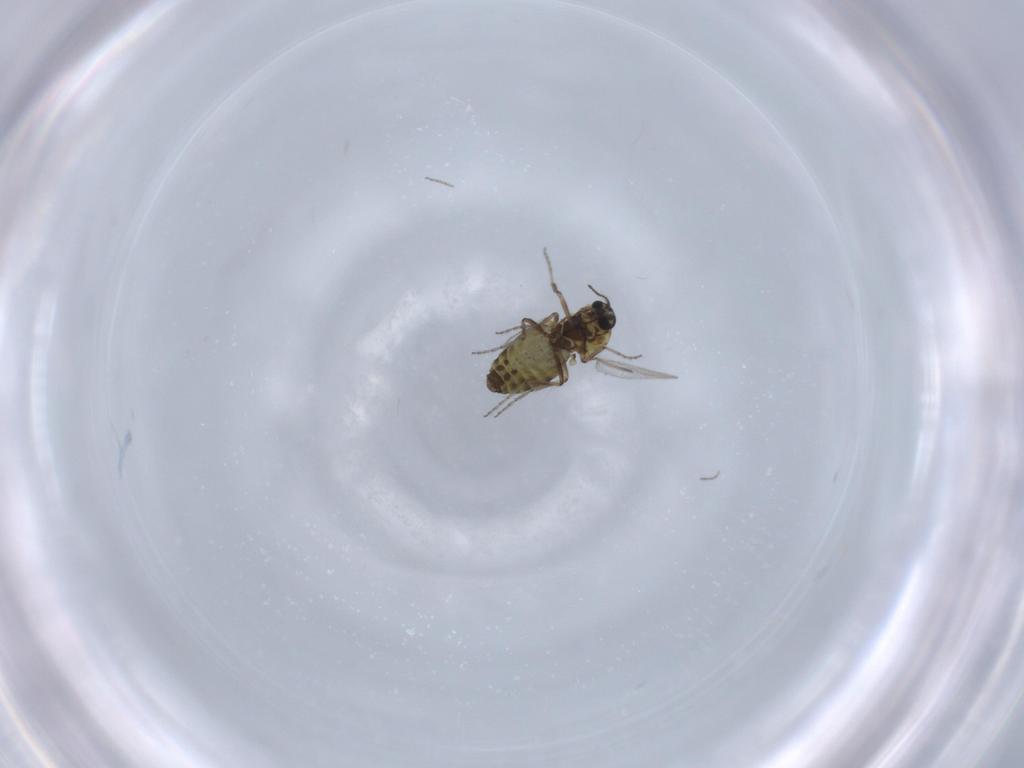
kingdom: Animalia
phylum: Arthropoda
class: Insecta
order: Diptera
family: Ceratopogonidae
